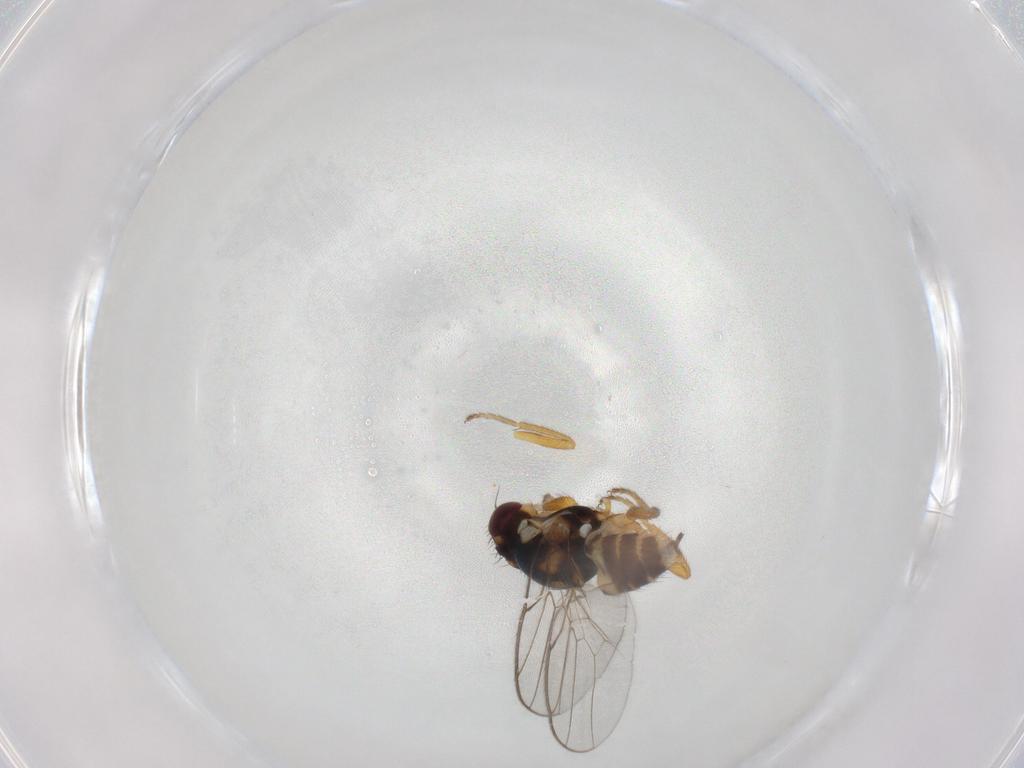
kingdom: Animalia
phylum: Arthropoda
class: Insecta
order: Diptera
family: Chloropidae
